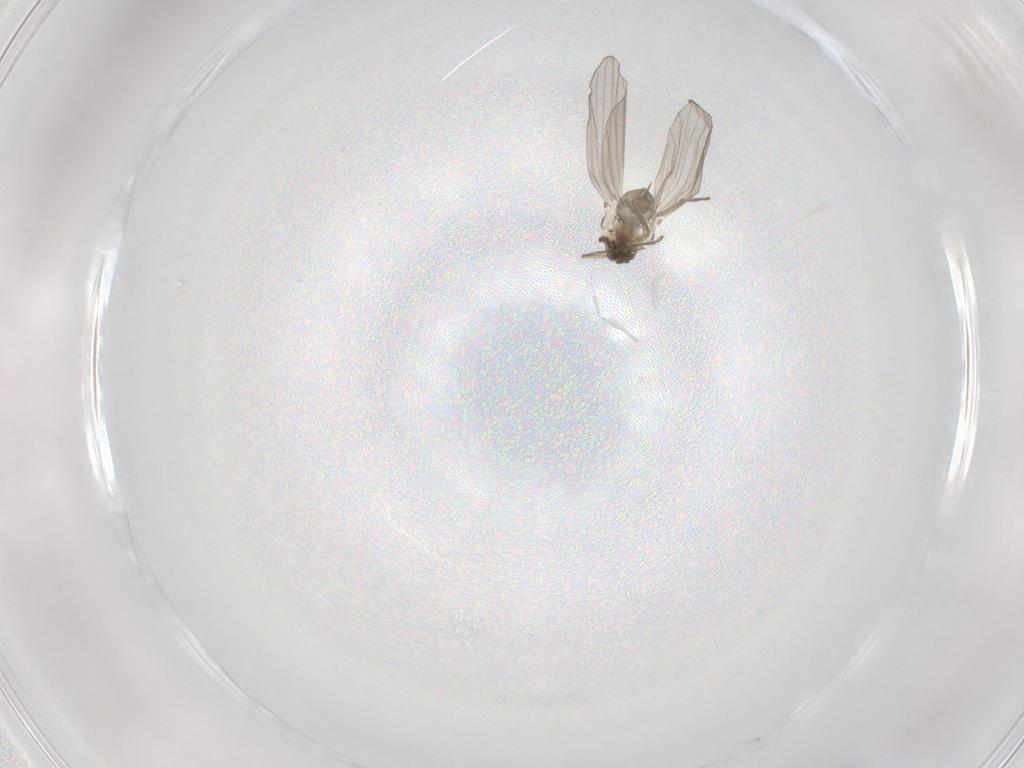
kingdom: Animalia
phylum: Arthropoda
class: Insecta
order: Diptera
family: Psychodidae
